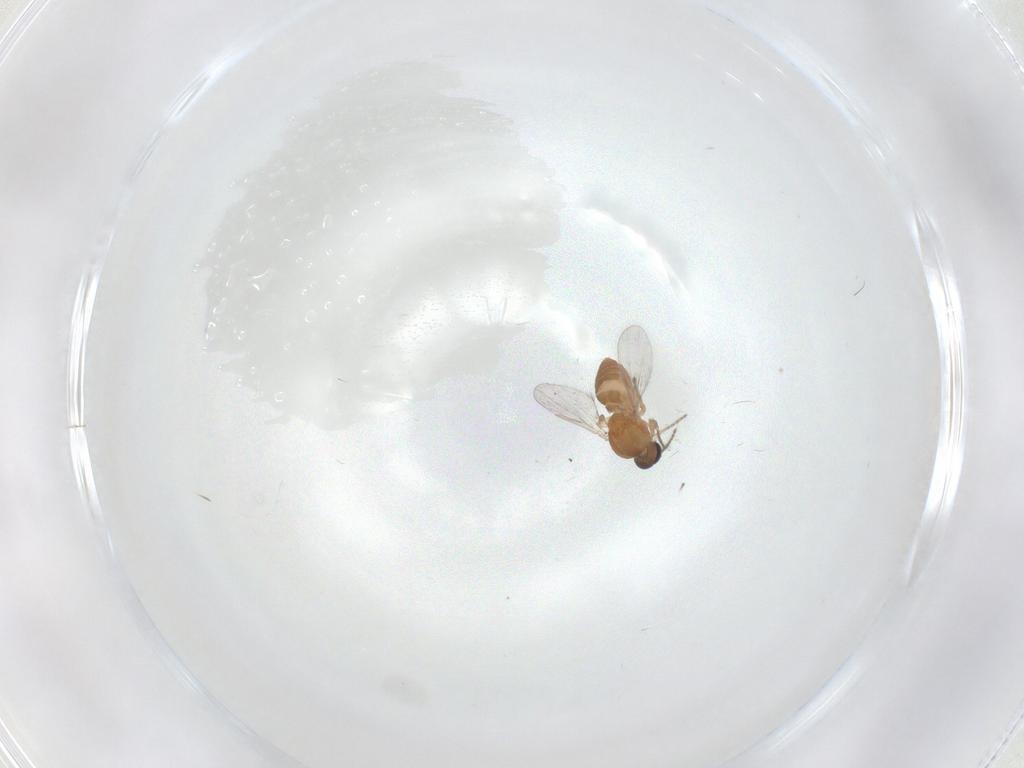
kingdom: Animalia
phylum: Arthropoda
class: Insecta
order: Diptera
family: Ceratopogonidae
